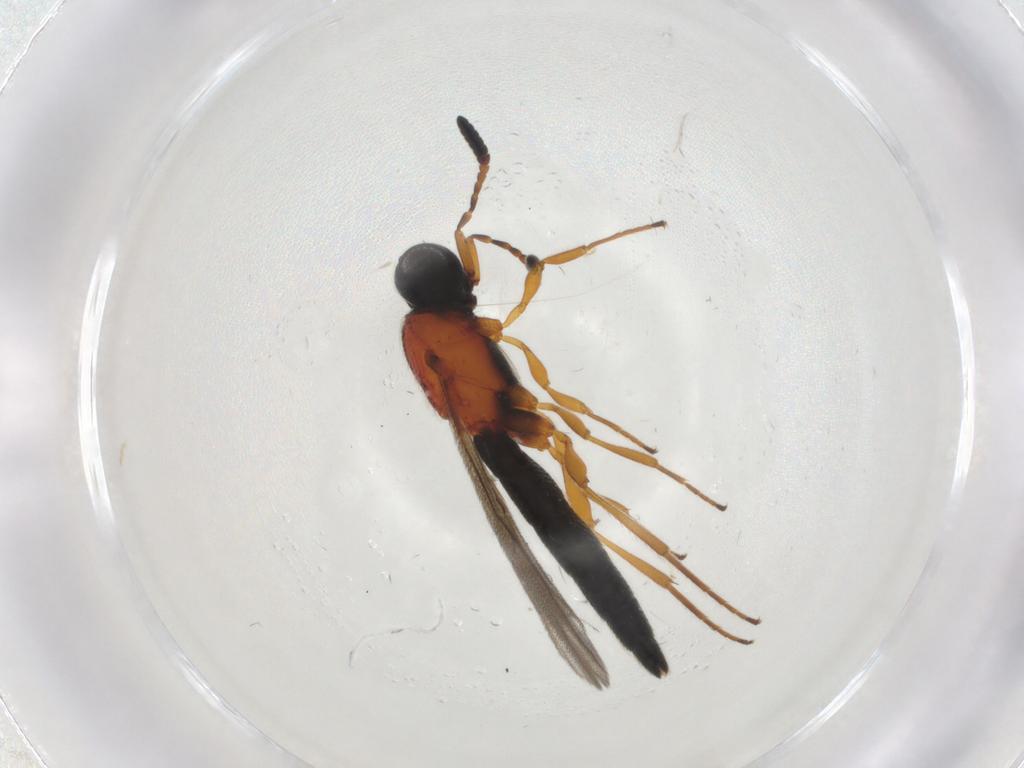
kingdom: Animalia
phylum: Arthropoda
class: Insecta
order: Hymenoptera
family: Scelionidae
